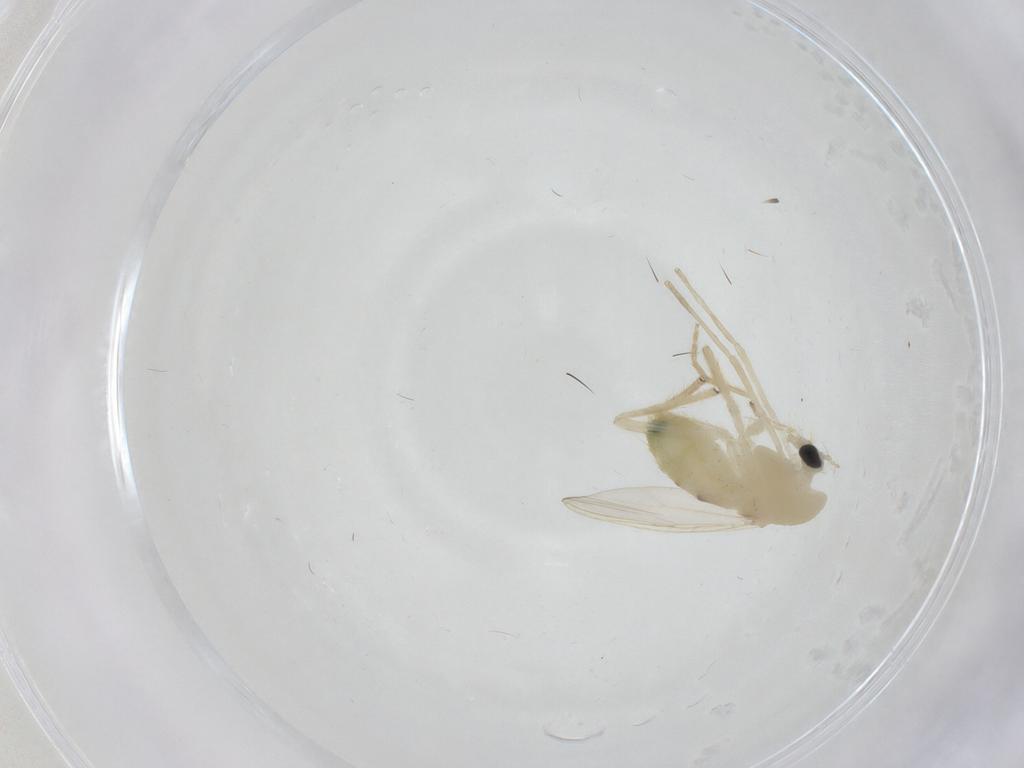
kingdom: Animalia
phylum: Arthropoda
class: Insecta
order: Diptera
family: Chironomidae
